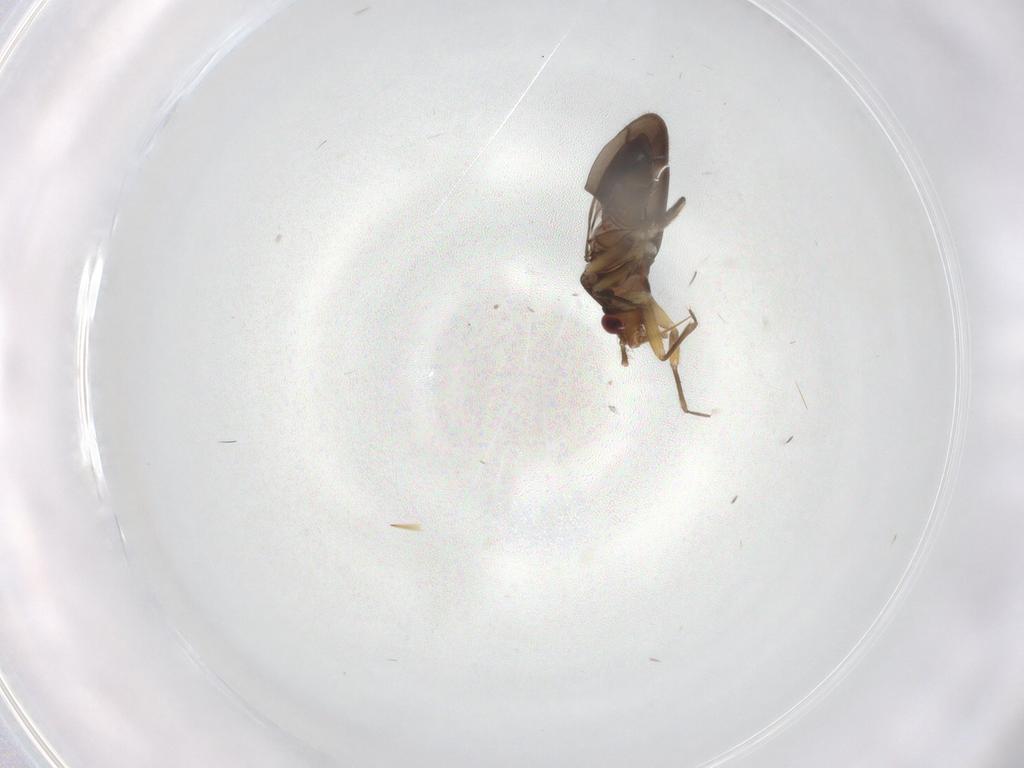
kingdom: Animalia
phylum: Arthropoda
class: Insecta
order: Hemiptera
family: Ceratocombidae
